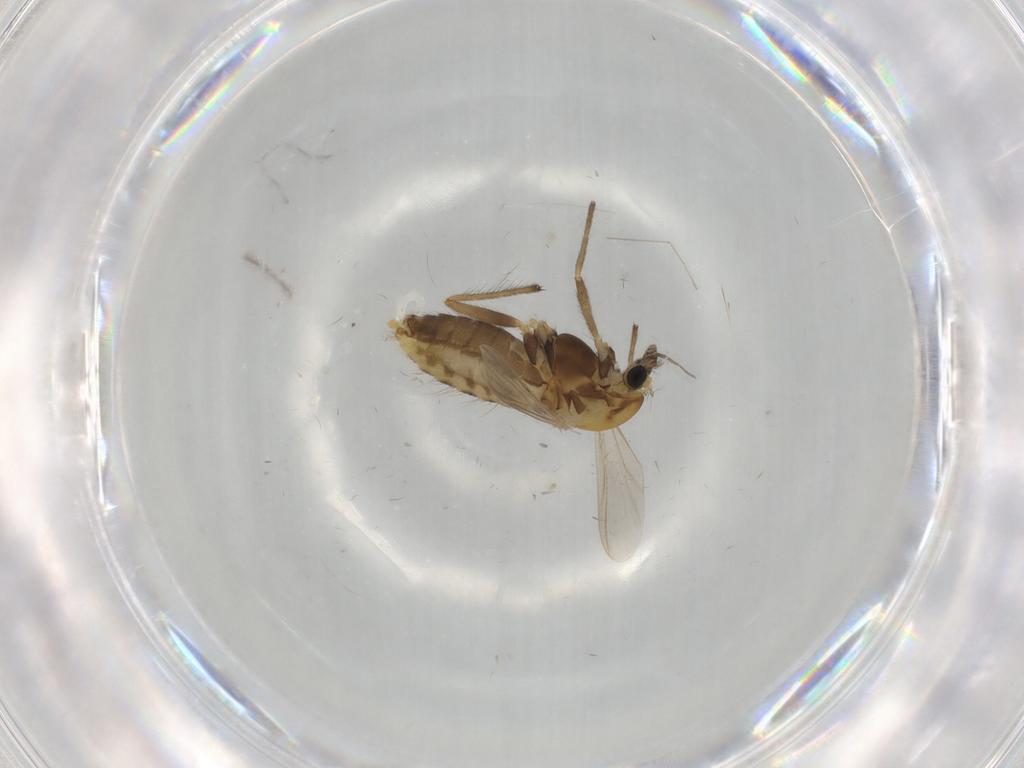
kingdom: Animalia
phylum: Arthropoda
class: Insecta
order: Diptera
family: Chironomidae
